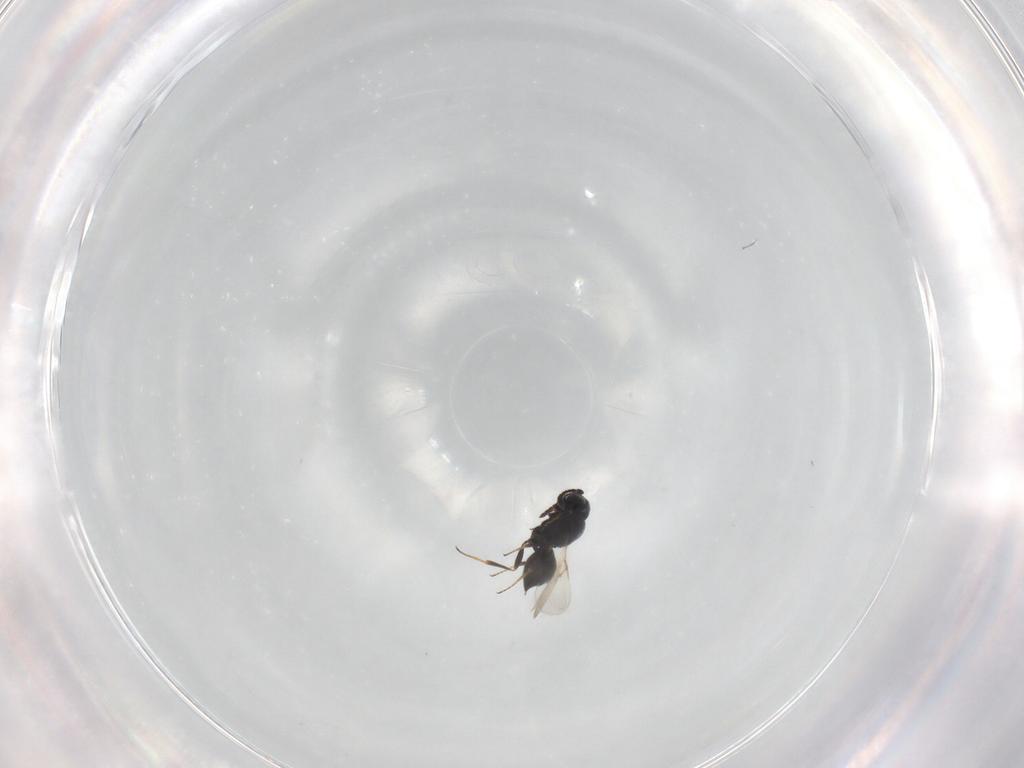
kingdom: Animalia
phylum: Arthropoda
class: Insecta
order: Hymenoptera
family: Scelionidae
